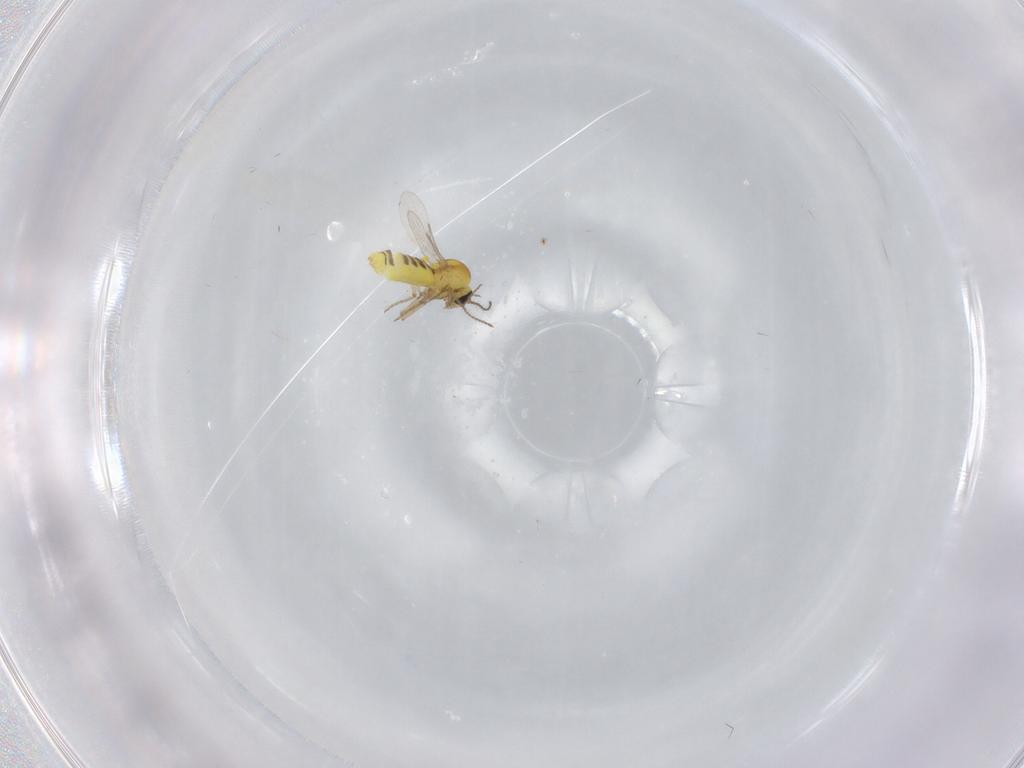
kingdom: Animalia
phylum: Arthropoda
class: Insecta
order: Diptera
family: Ceratopogonidae
